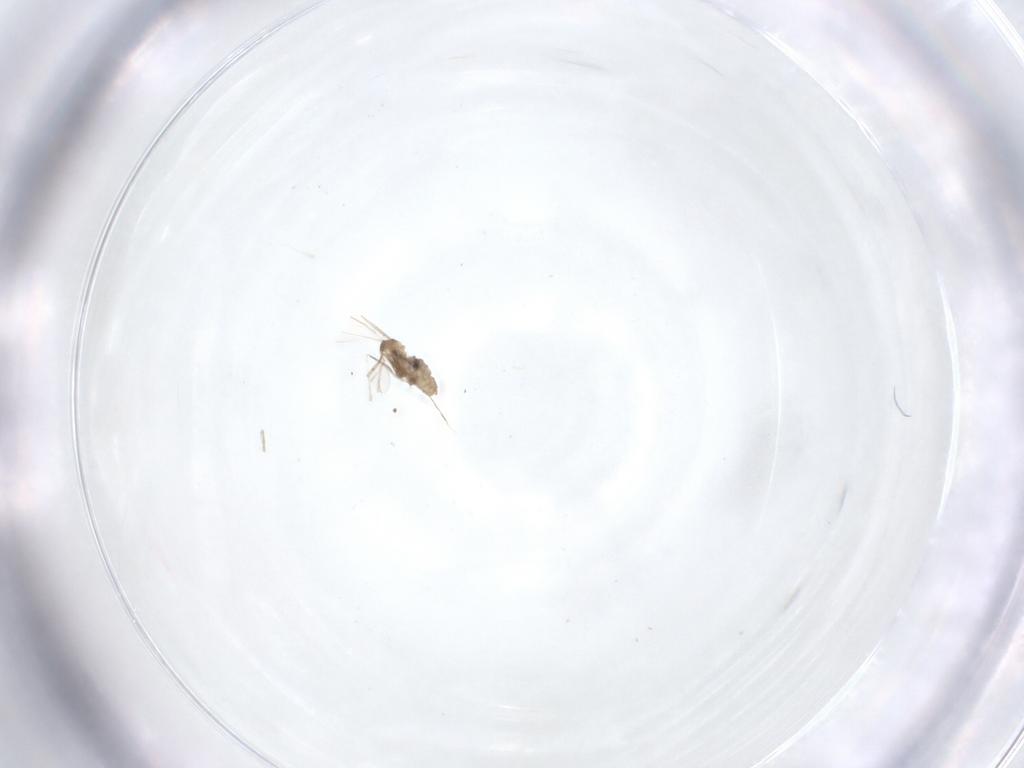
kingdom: Animalia
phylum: Arthropoda
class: Insecta
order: Diptera
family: Cecidomyiidae
